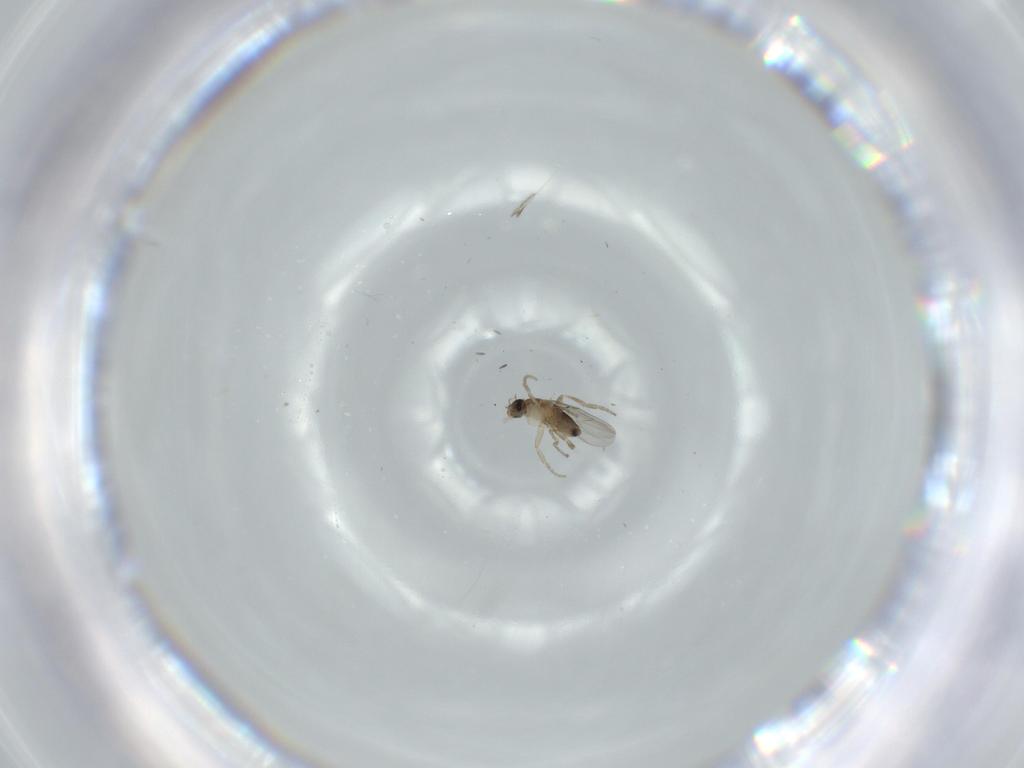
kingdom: Animalia
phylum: Arthropoda
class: Insecta
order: Diptera
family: Phoridae
